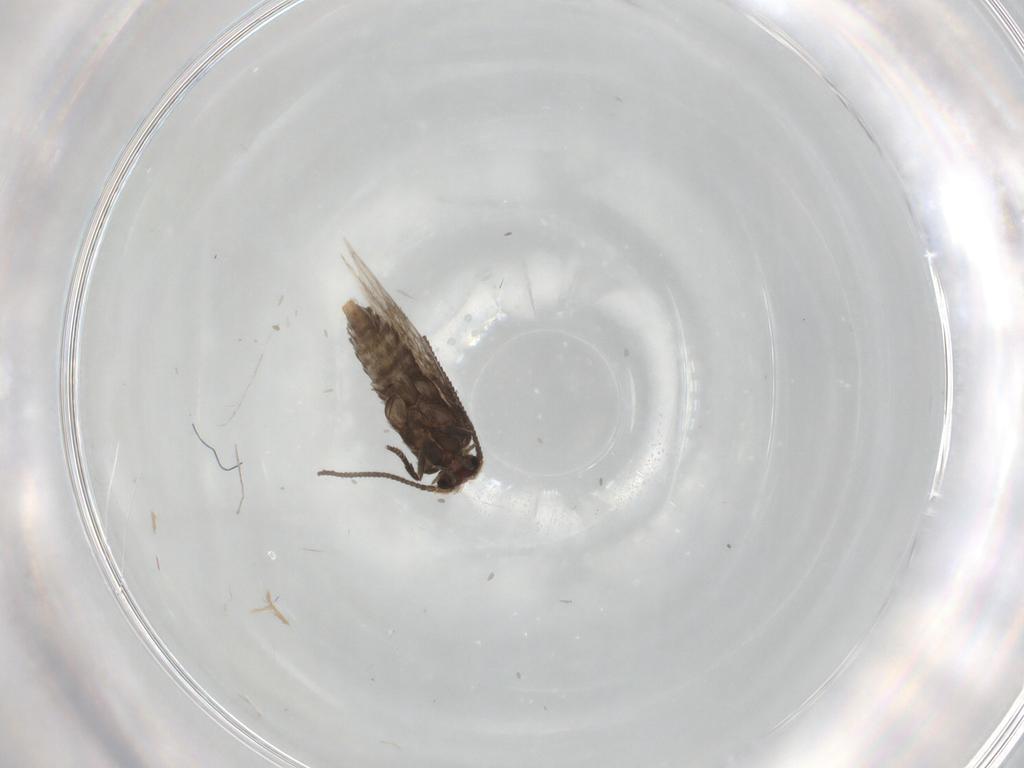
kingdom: Animalia
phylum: Arthropoda
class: Insecta
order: Lepidoptera
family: Nepticulidae
